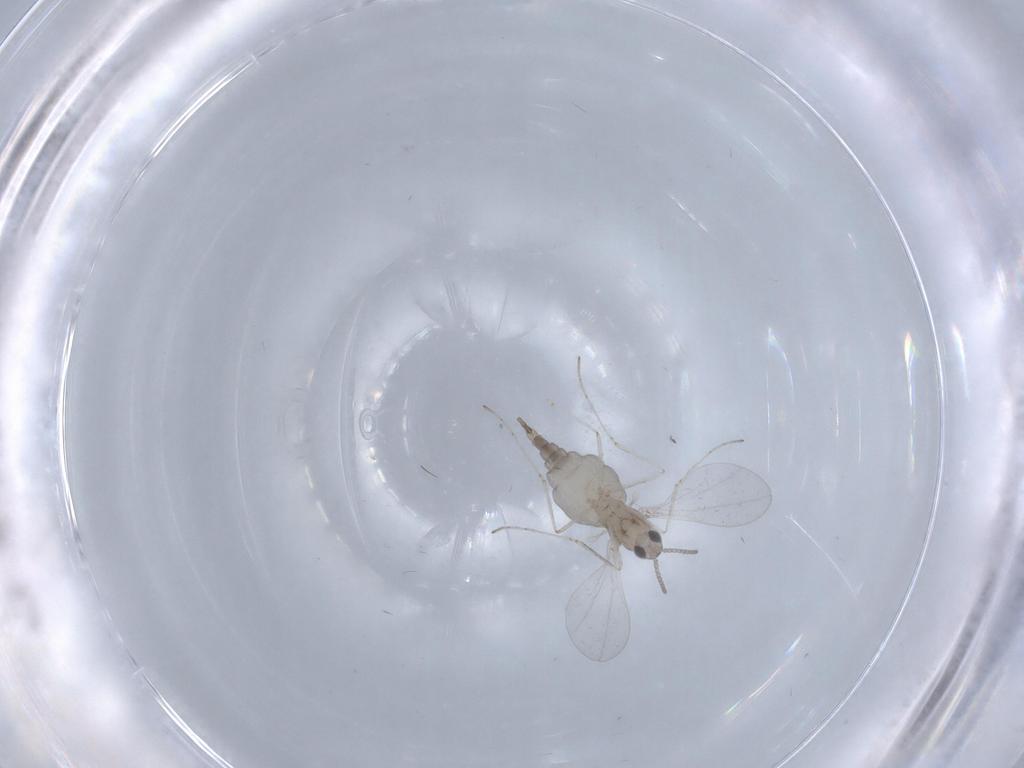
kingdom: Animalia
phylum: Arthropoda
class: Insecta
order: Diptera
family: Cecidomyiidae
